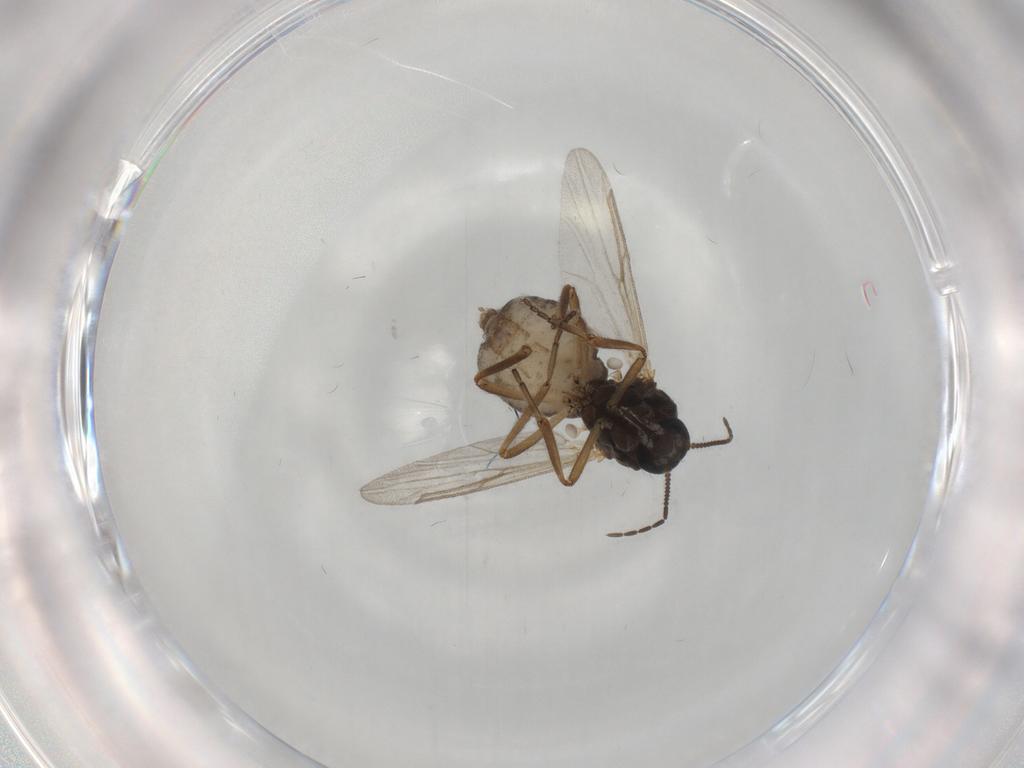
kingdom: Animalia
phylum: Arthropoda
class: Insecta
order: Diptera
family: Ceratopogonidae
